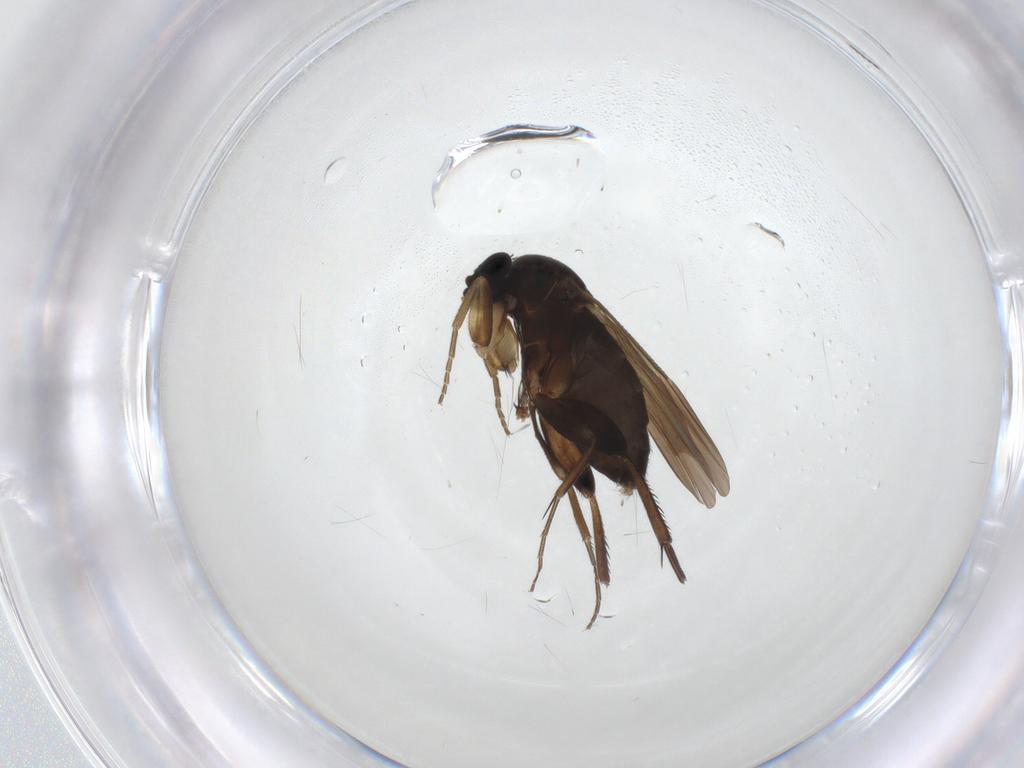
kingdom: Animalia
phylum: Arthropoda
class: Insecta
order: Diptera
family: Phoridae
